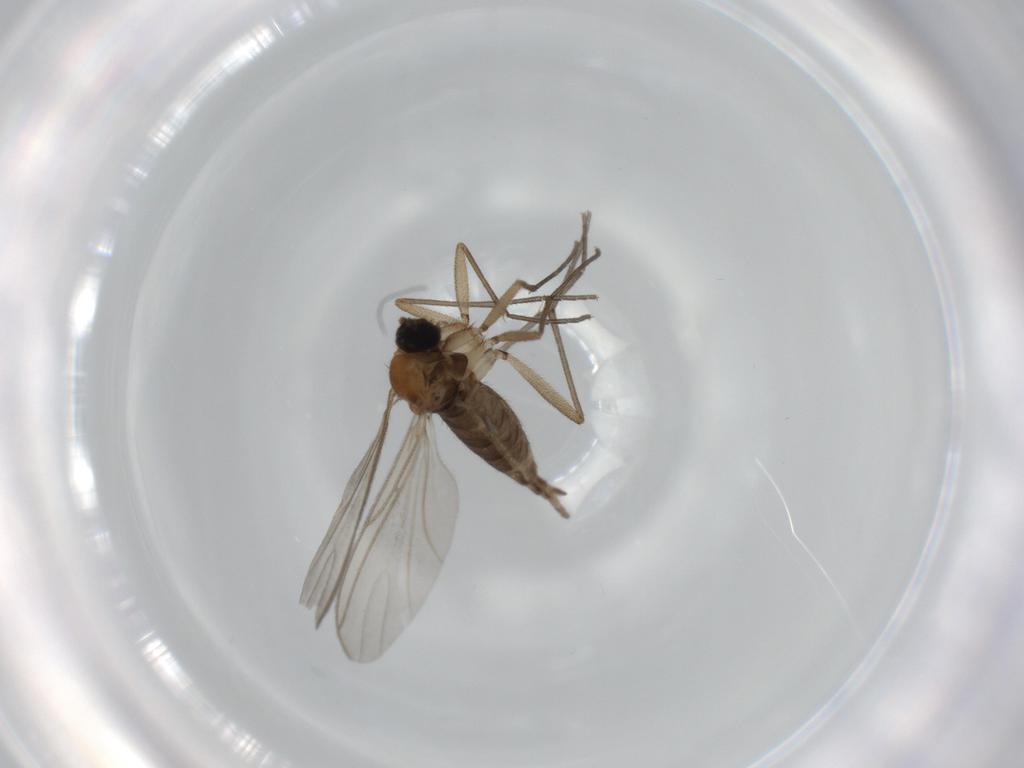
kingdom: Animalia
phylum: Arthropoda
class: Insecta
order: Diptera
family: Sciaridae
